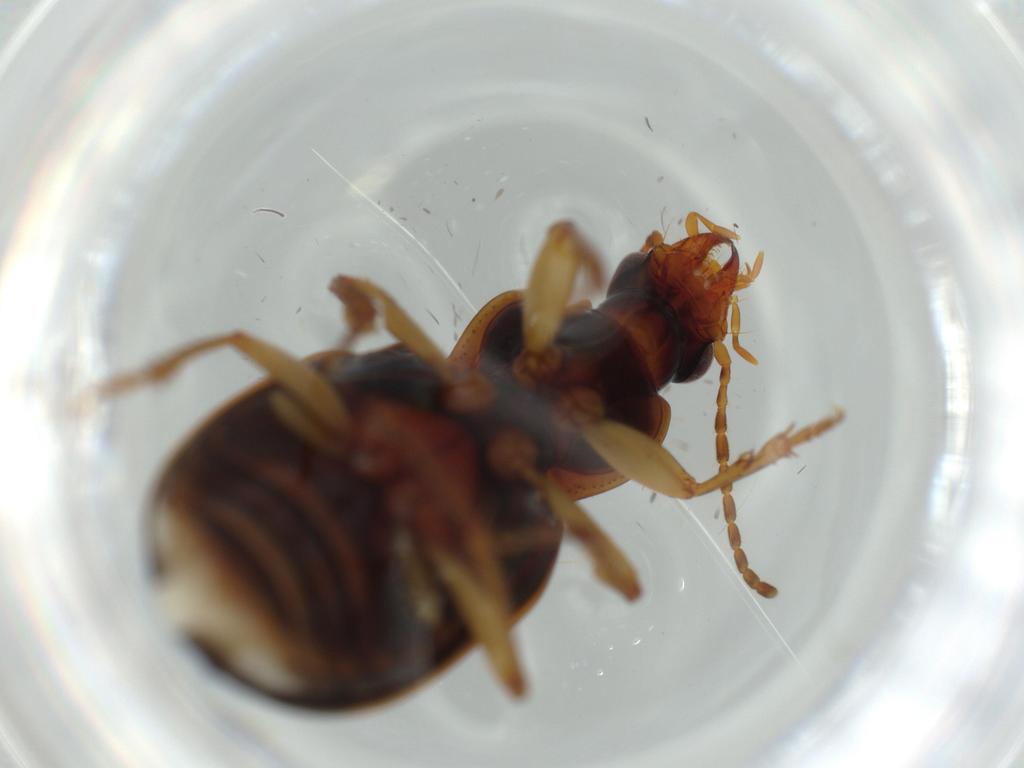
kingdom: Animalia
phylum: Arthropoda
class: Insecta
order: Coleoptera
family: Carabidae
